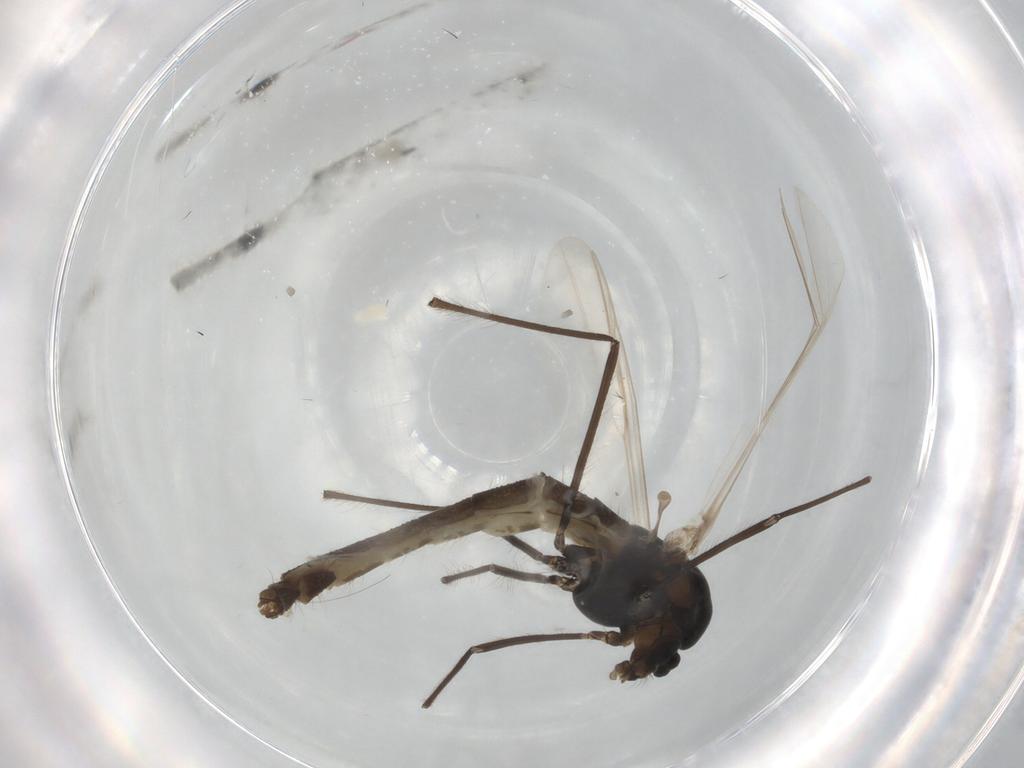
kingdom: Animalia
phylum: Arthropoda
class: Insecta
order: Diptera
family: Chironomidae
